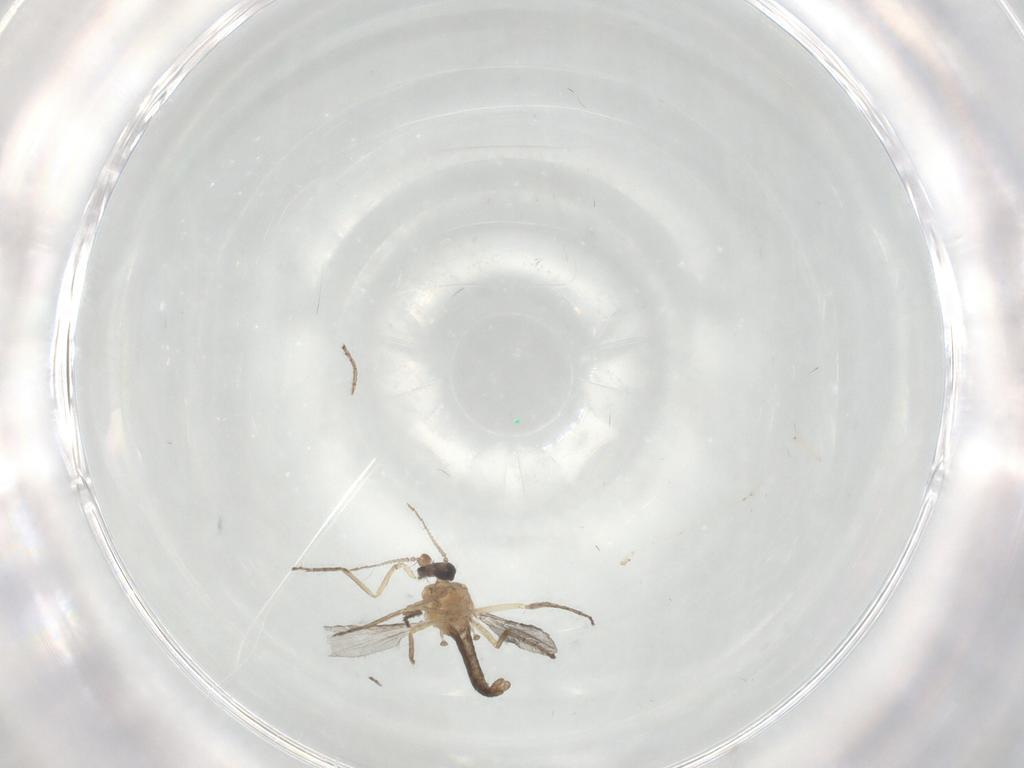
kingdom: Animalia
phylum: Arthropoda
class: Insecta
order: Diptera
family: Ceratopogonidae
